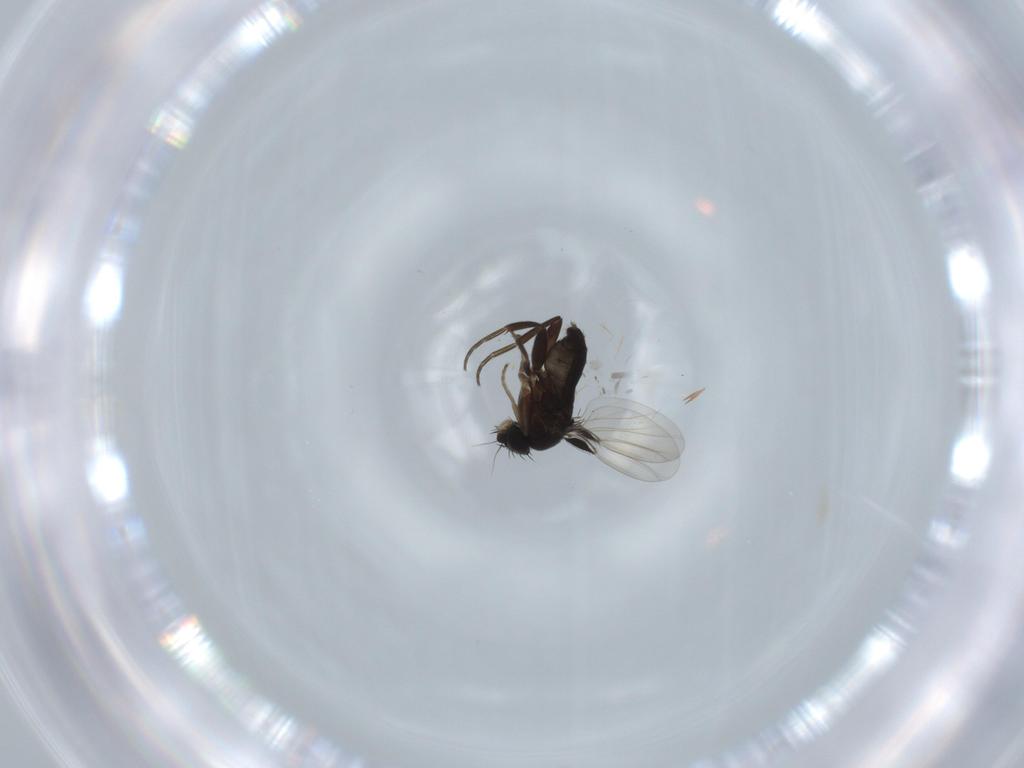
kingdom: Animalia
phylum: Arthropoda
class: Insecta
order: Diptera
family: Phoridae
